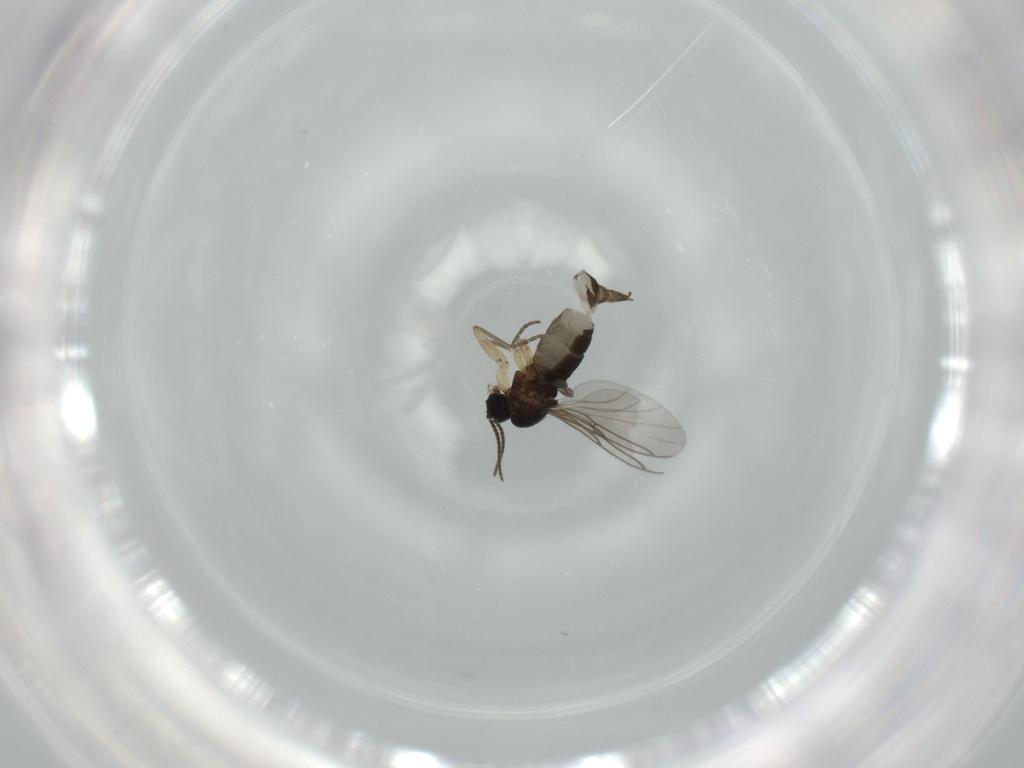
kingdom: Animalia
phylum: Arthropoda
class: Insecta
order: Diptera
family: Sciaridae
